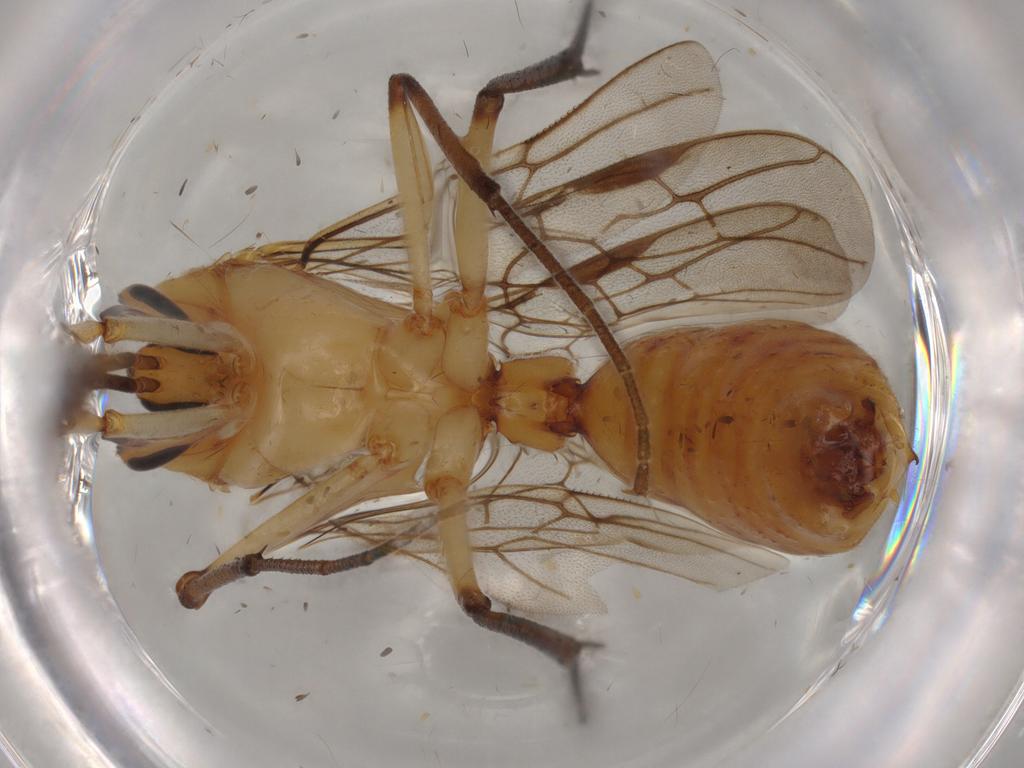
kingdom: Animalia
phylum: Arthropoda
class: Insecta
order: Hymenoptera
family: Formicidae
